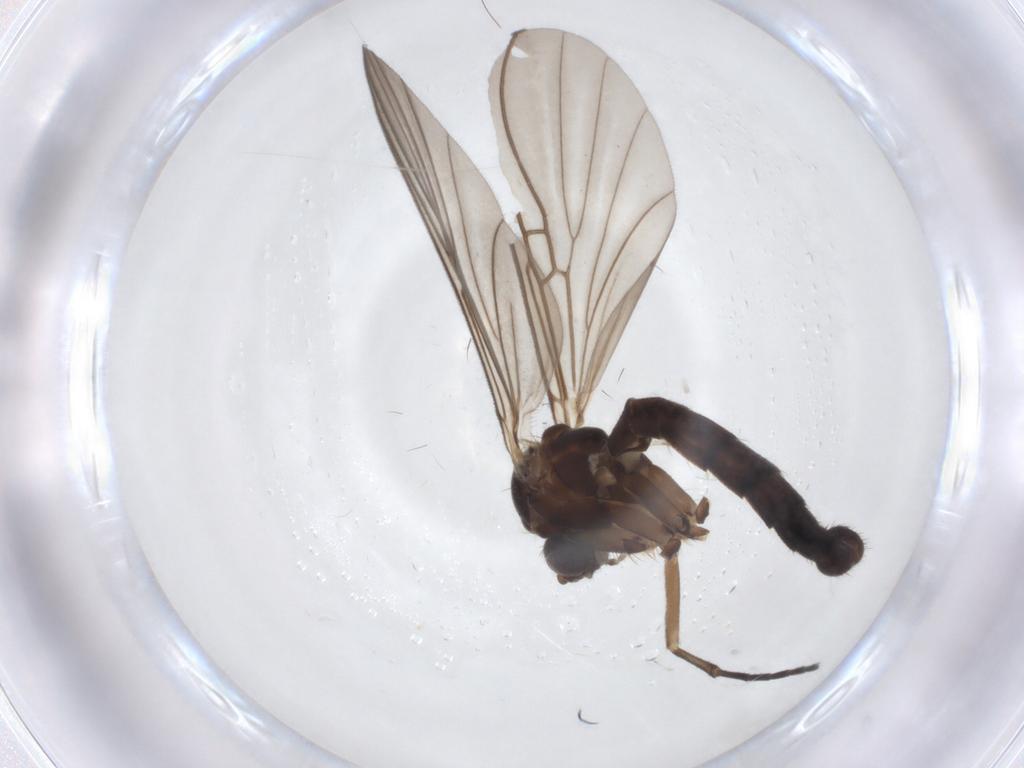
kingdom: Animalia
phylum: Arthropoda
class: Insecta
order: Diptera
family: Mycetophilidae
